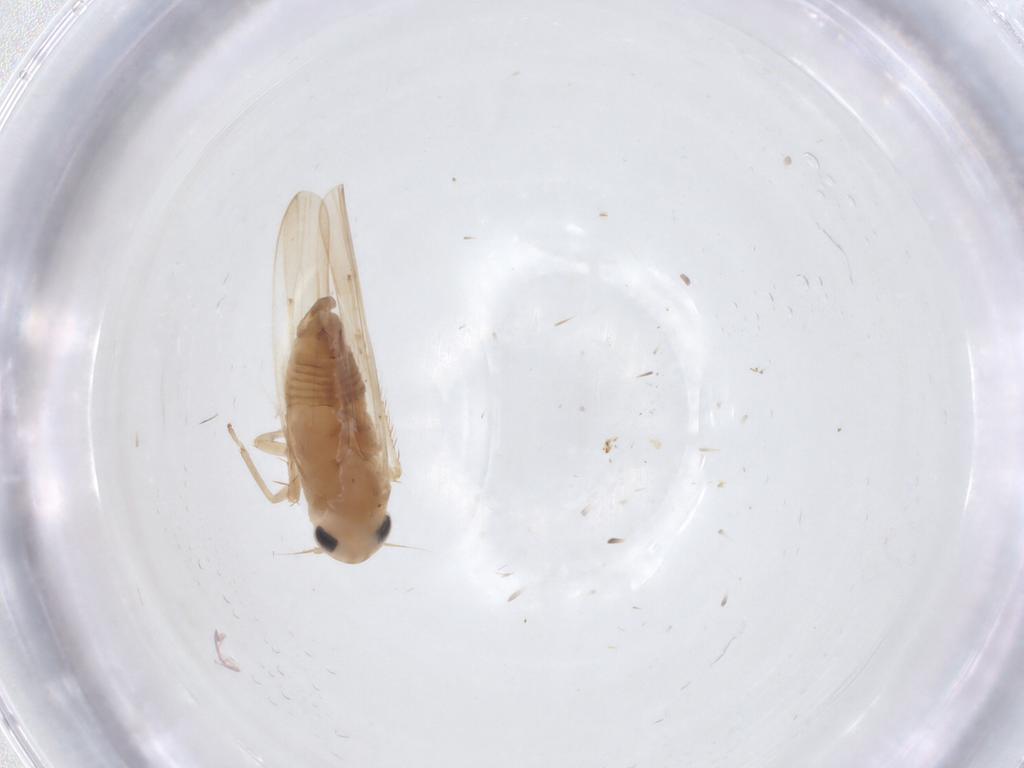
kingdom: Animalia
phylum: Arthropoda
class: Insecta
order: Hemiptera
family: Cicadellidae
